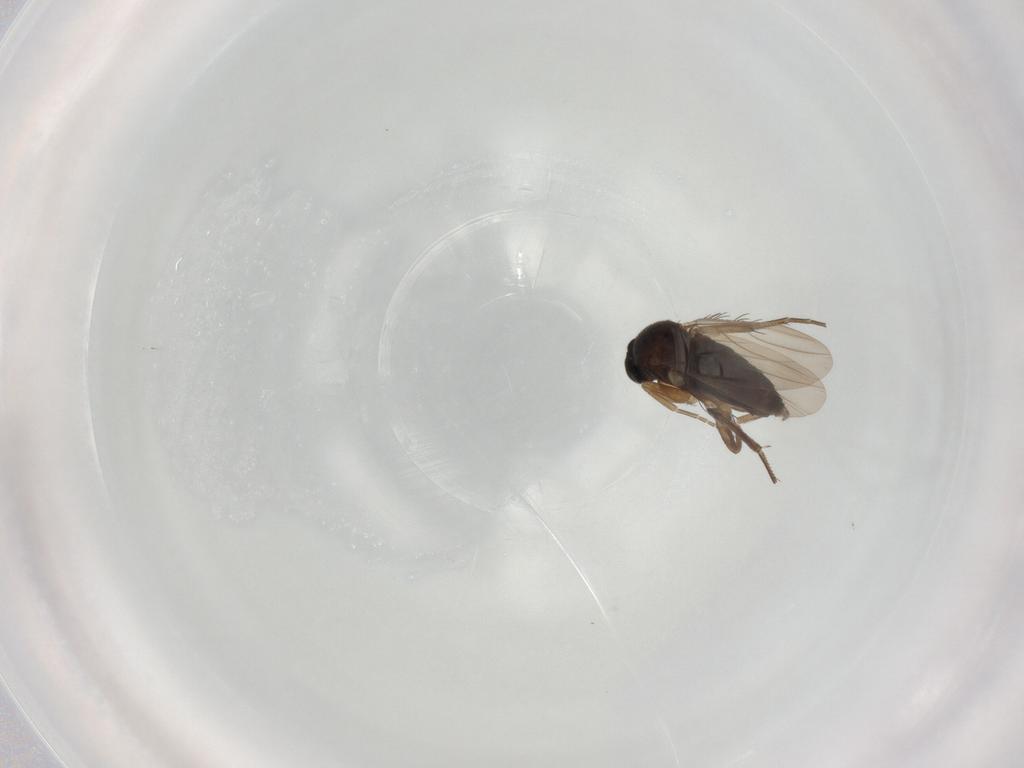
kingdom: Animalia
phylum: Arthropoda
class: Insecta
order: Diptera
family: Phoridae
